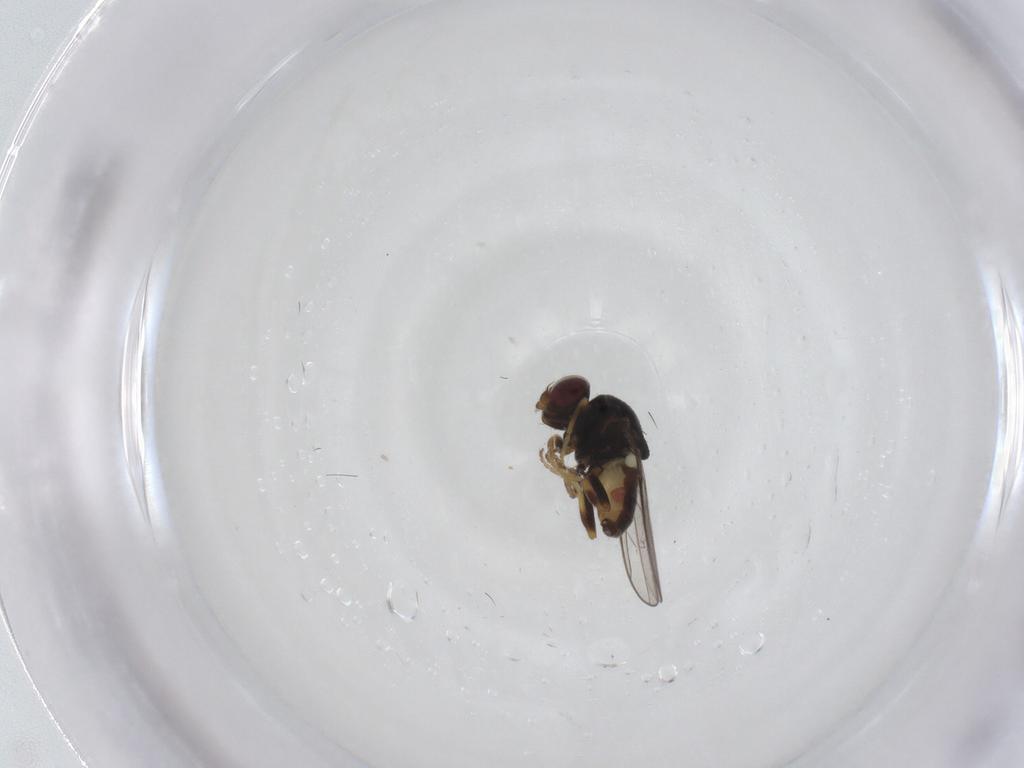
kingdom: Animalia
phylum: Arthropoda
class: Insecta
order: Diptera
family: Chloropidae
